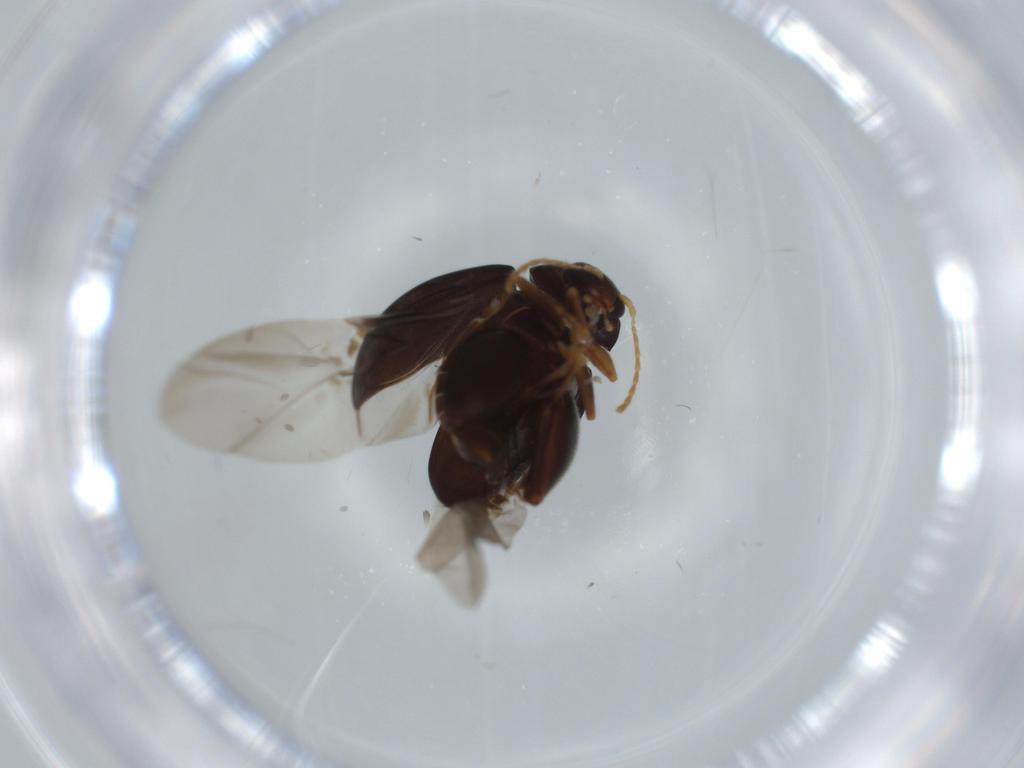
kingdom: Animalia
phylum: Arthropoda
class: Insecta
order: Coleoptera
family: Chrysomelidae
